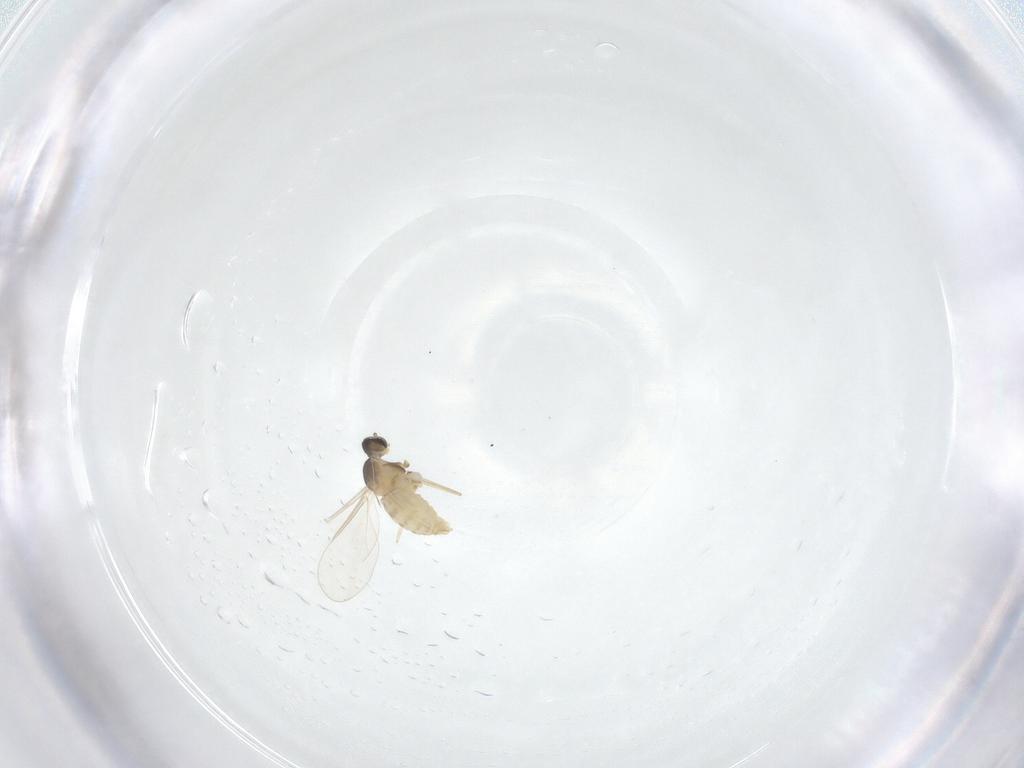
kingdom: Animalia
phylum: Arthropoda
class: Insecta
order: Diptera
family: Cecidomyiidae
